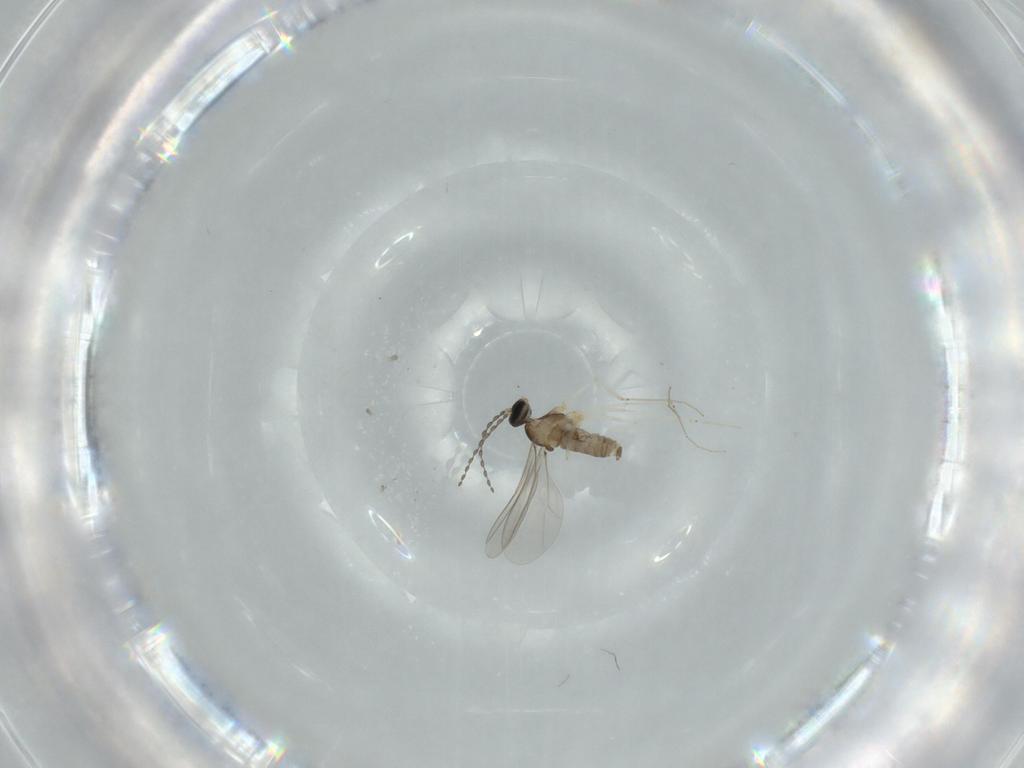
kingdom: Animalia
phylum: Arthropoda
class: Insecta
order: Diptera
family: Cecidomyiidae
